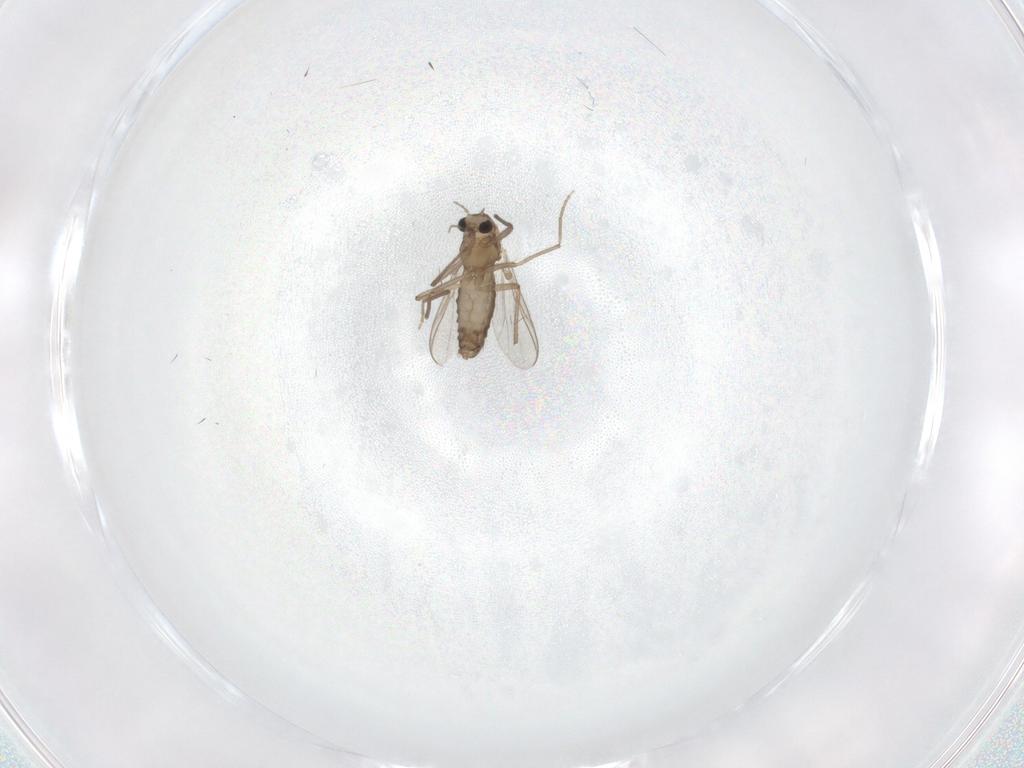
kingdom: Animalia
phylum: Arthropoda
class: Insecta
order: Diptera
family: Chironomidae
